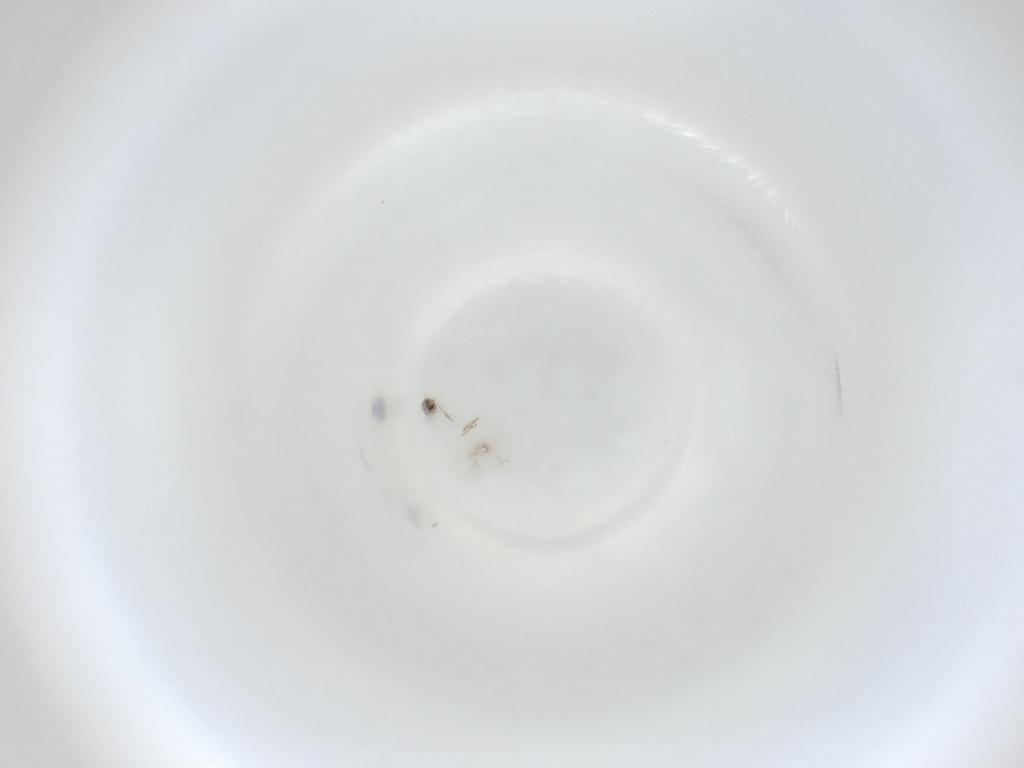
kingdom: Animalia
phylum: Arthropoda
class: Insecta
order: Diptera
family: Cecidomyiidae
